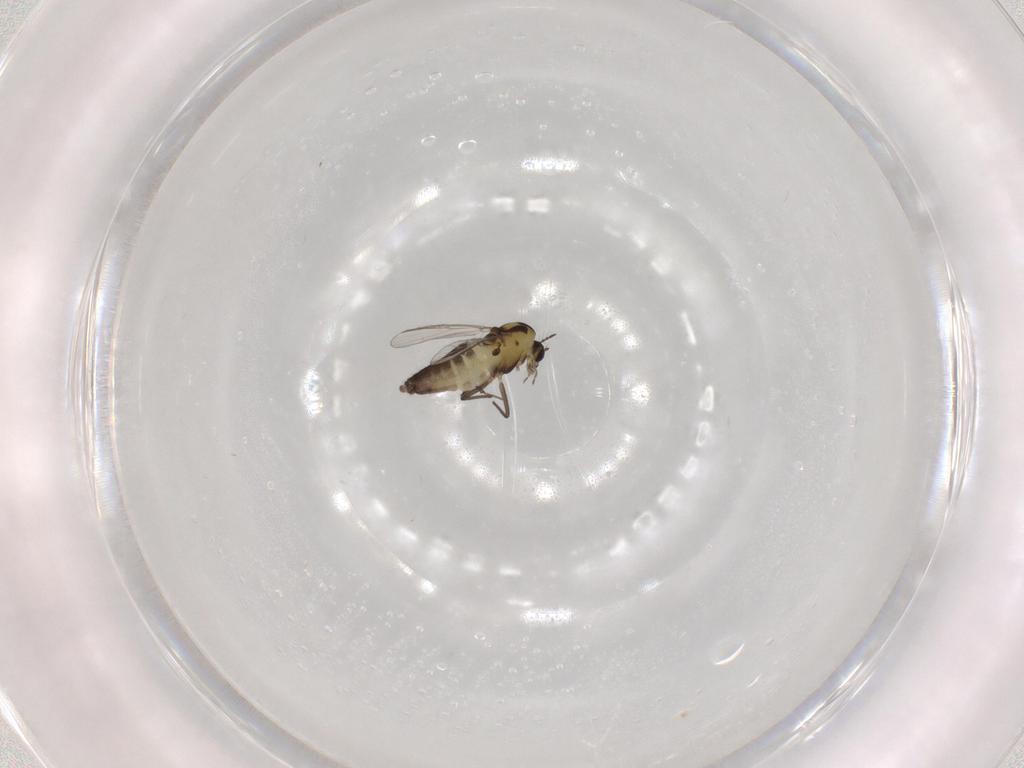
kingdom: Animalia
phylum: Arthropoda
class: Insecta
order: Diptera
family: Chironomidae
